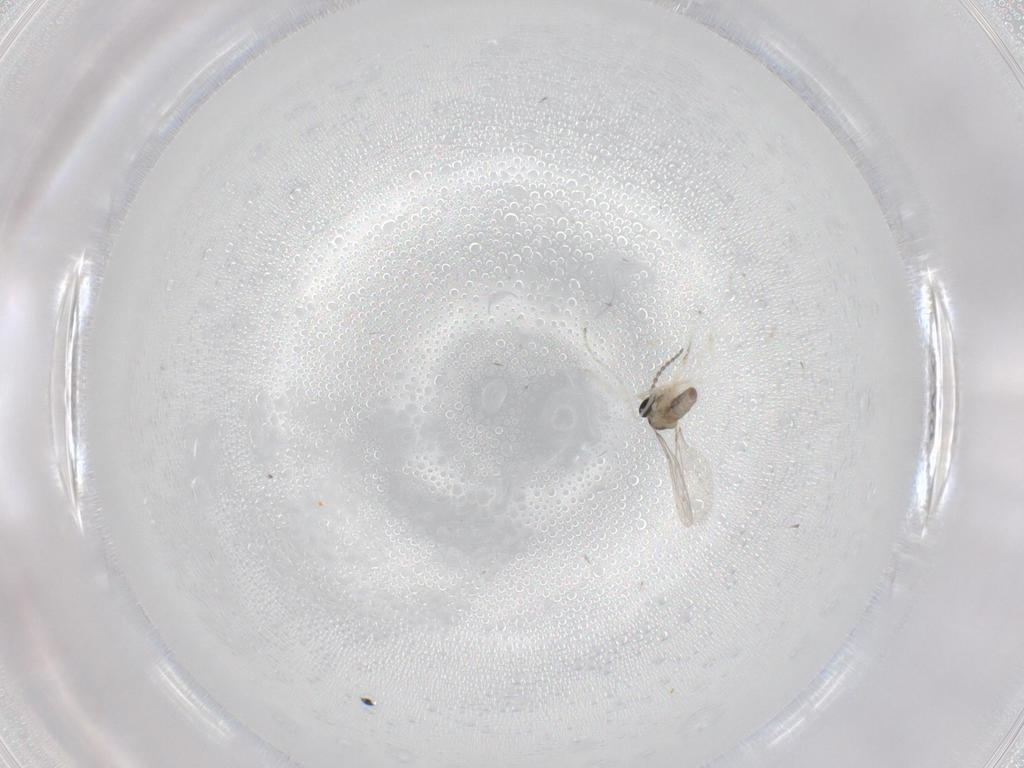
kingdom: Animalia
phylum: Arthropoda
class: Insecta
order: Diptera
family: Cecidomyiidae
